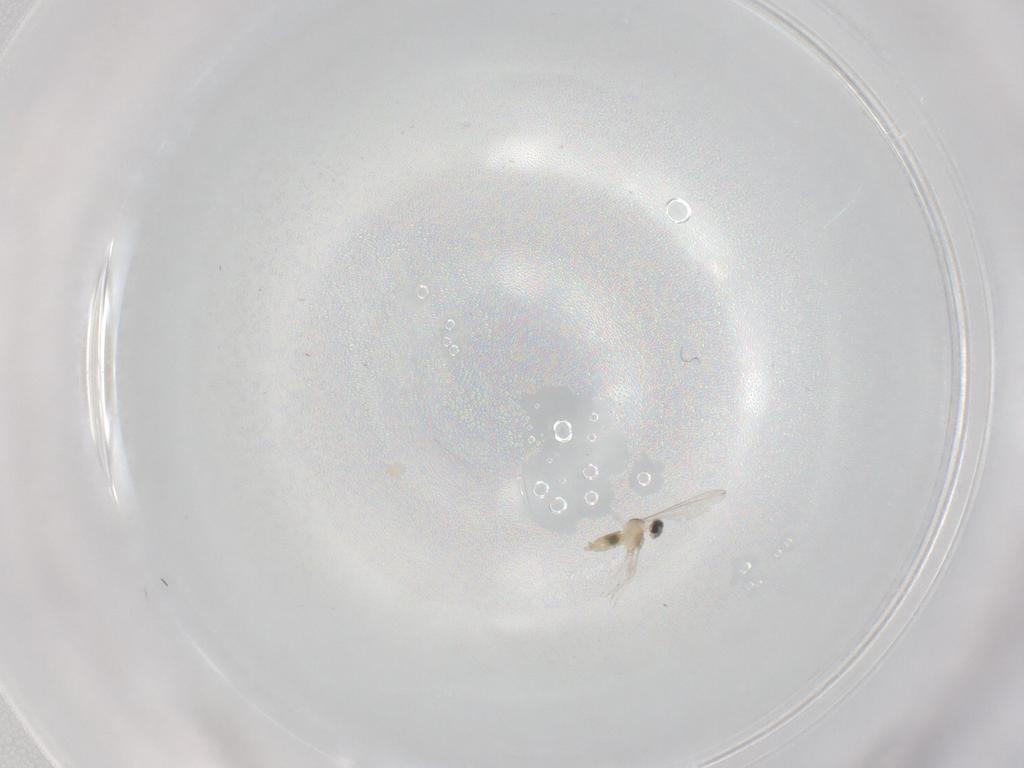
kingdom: Animalia
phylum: Arthropoda
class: Insecta
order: Diptera
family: Cecidomyiidae
